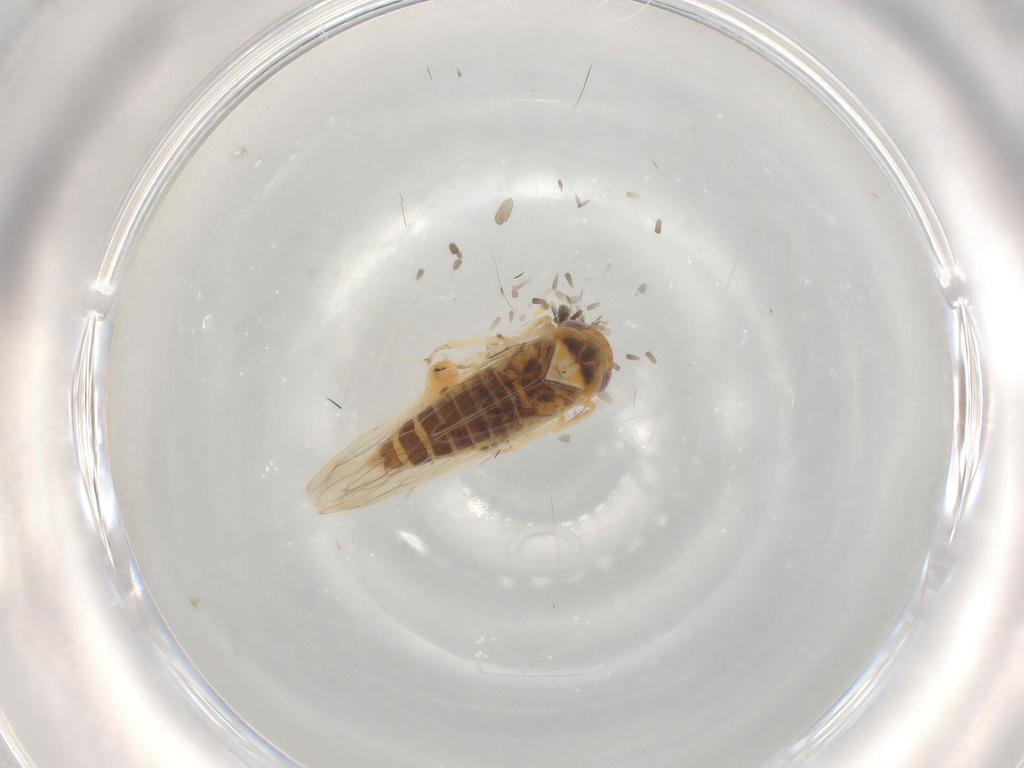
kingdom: Animalia
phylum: Arthropoda
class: Insecta
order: Hemiptera
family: Cicadellidae
